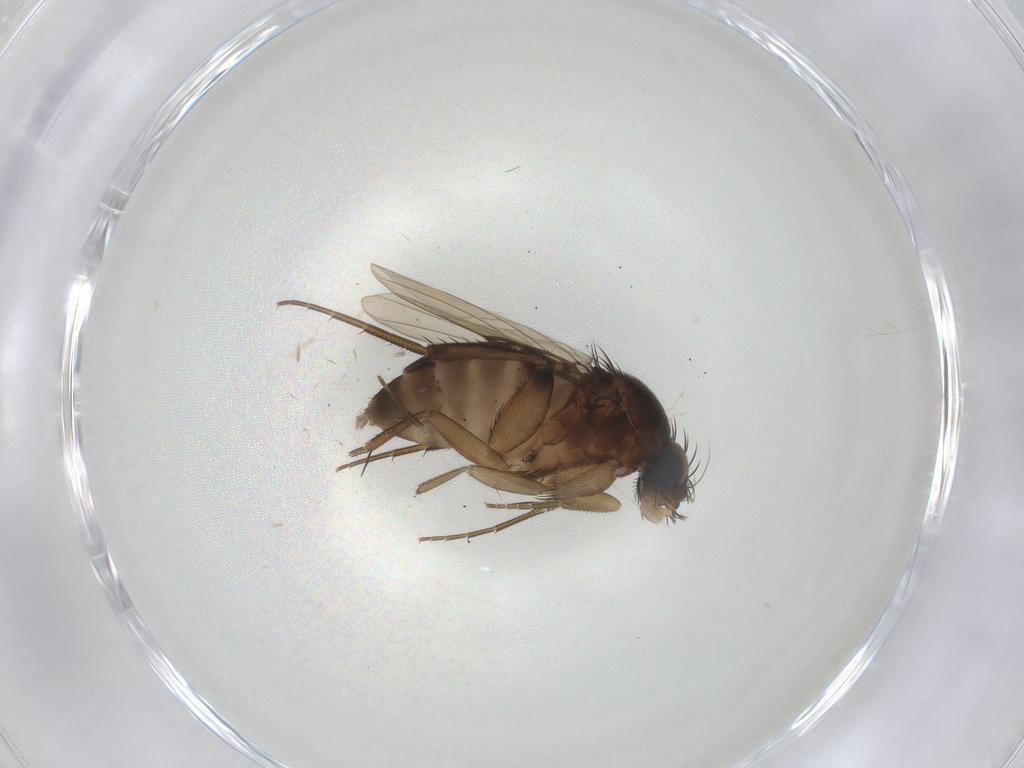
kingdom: Animalia
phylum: Arthropoda
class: Insecta
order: Diptera
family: Phoridae
